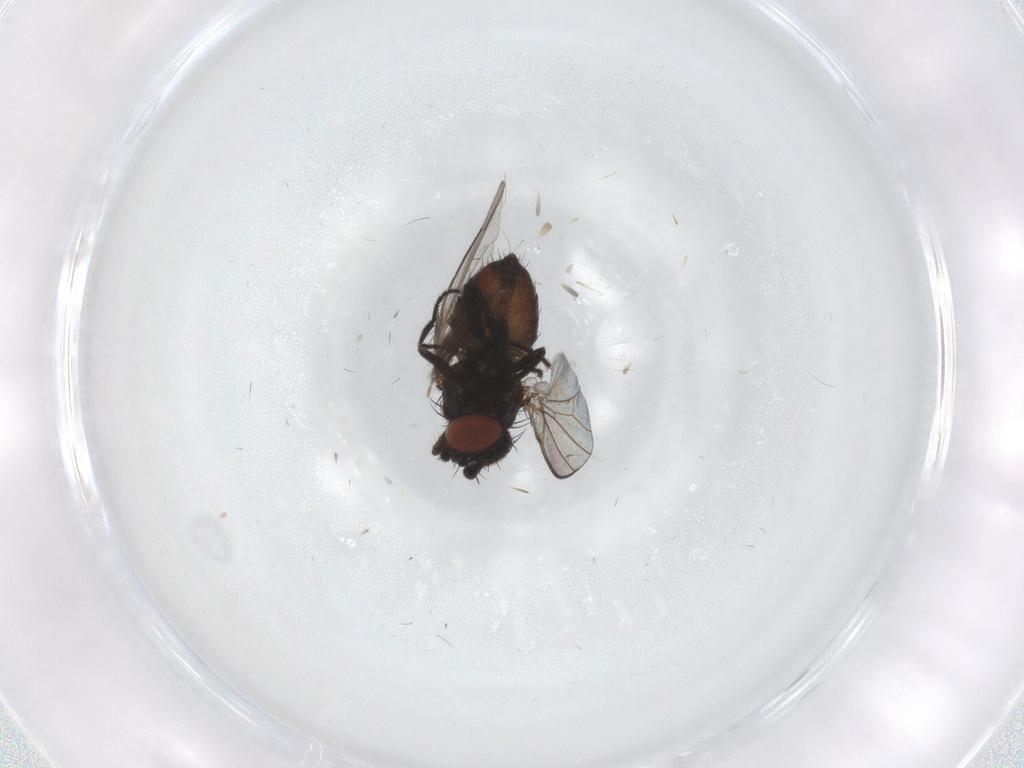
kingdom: Animalia
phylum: Arthropoda
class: Insecta
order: Diptera
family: Milichiidae
